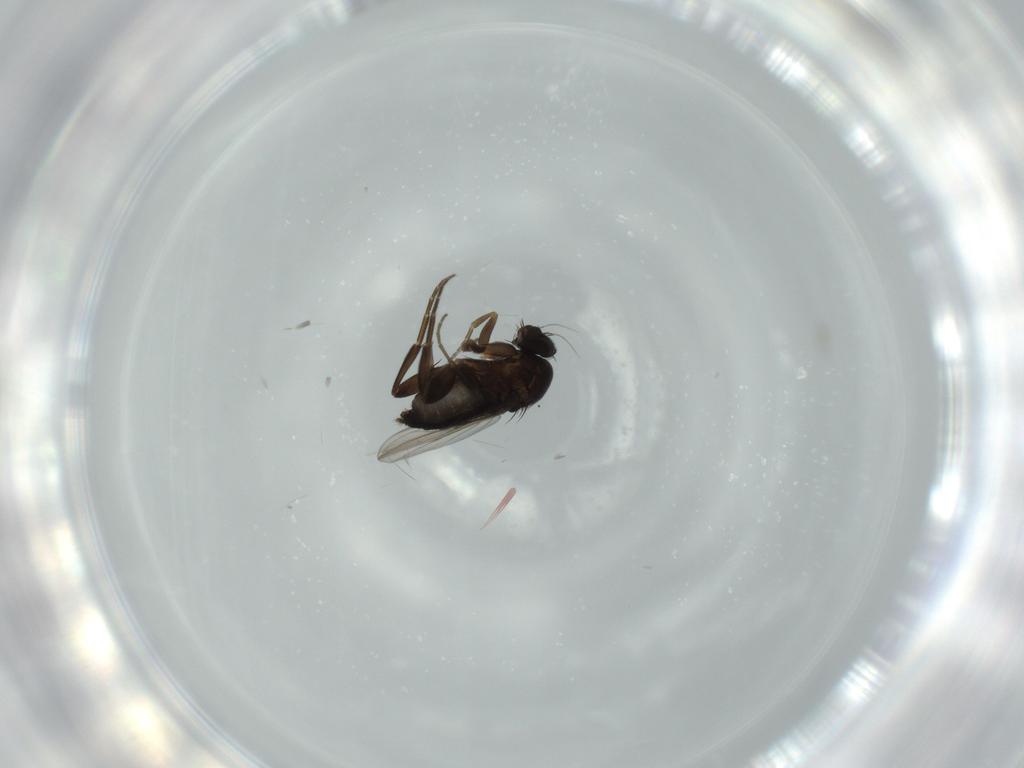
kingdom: Animalia
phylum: Arthropoda
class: Insecta
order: Diptera
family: Phoridae
